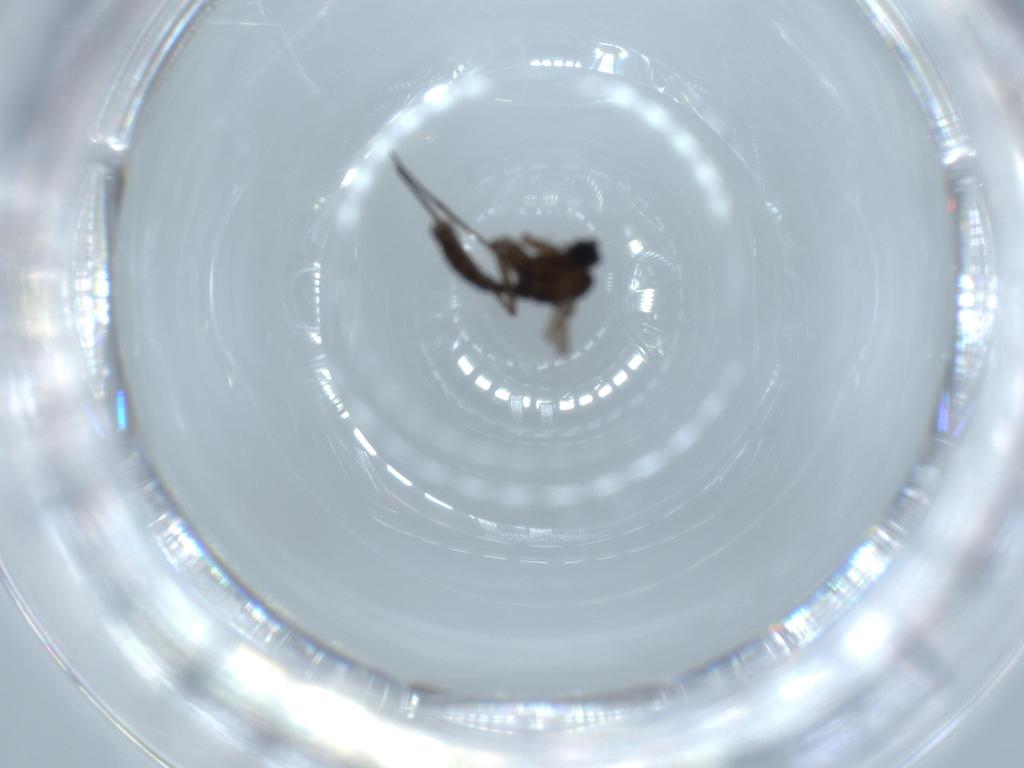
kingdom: Animalia
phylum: Arthropoda
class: Insecta
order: Diptera
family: Sciaridae
